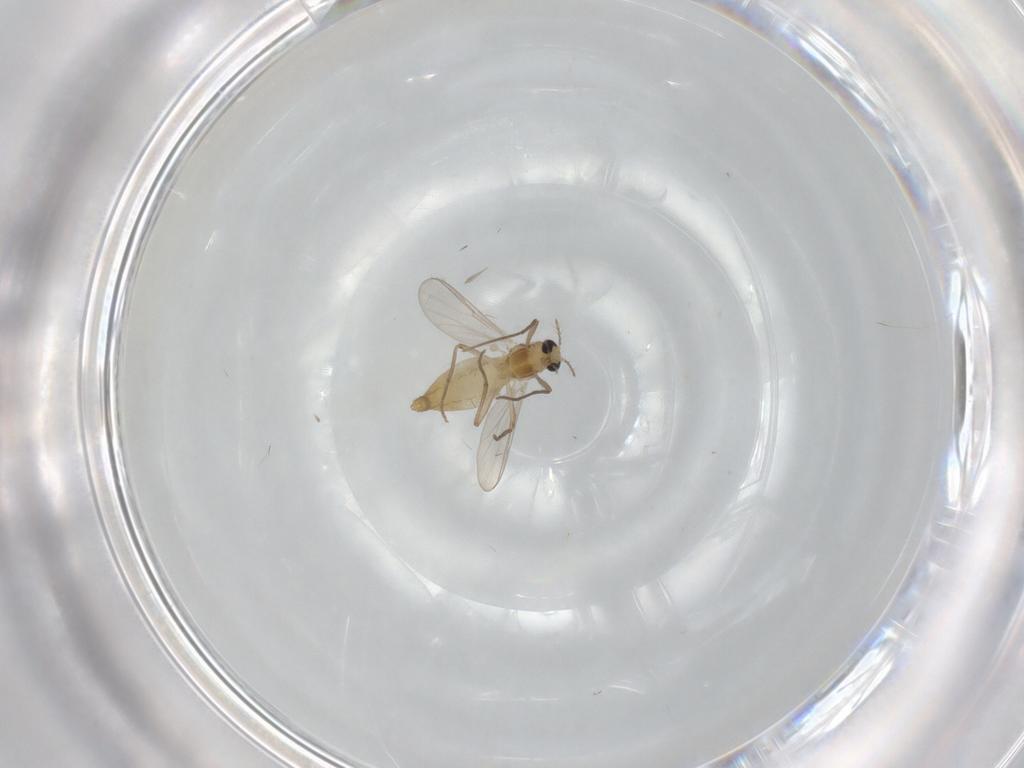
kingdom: Animalia
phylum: Arthropoda
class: Insecta
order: Diptera
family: Chironomidae
